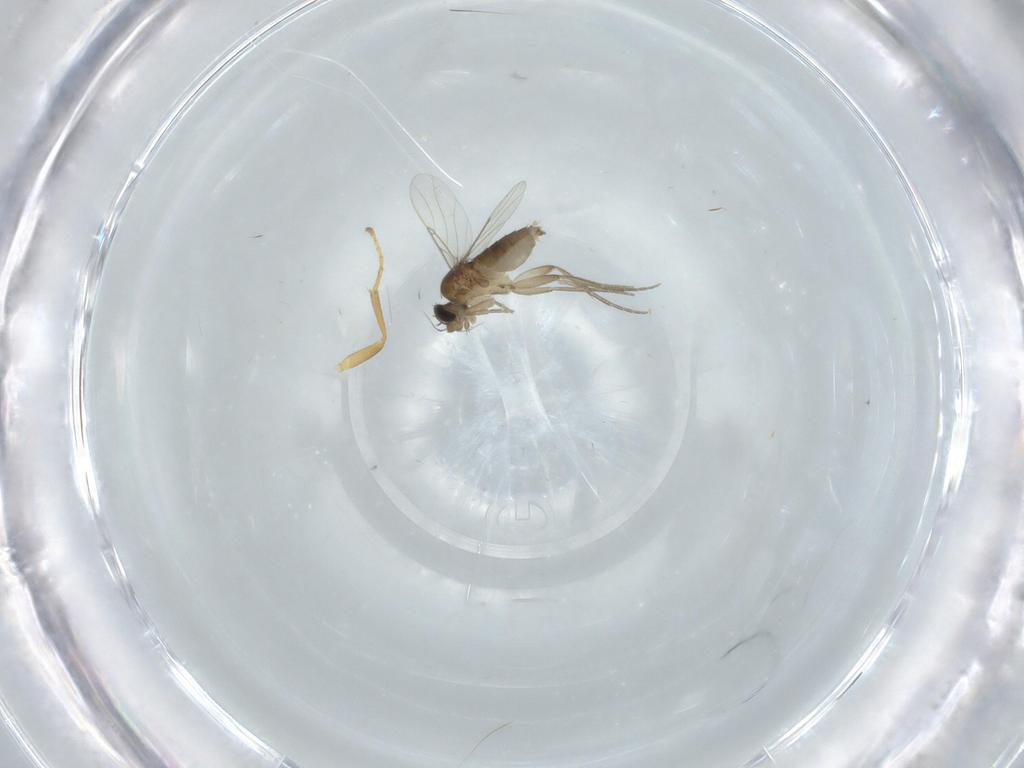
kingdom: Animalia
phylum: Arthropoda
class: Insecta
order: Diptera
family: Phoridae
